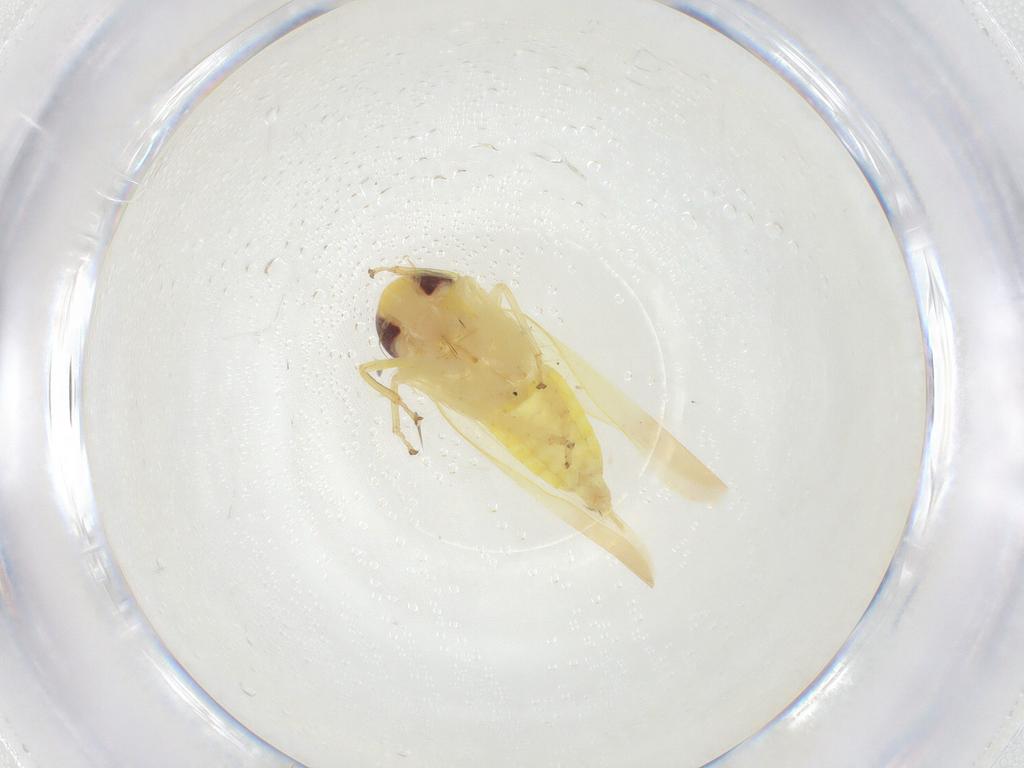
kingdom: Animalia
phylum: Arthropoda
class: Insecta
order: Hemiptera
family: Cicadellidae
